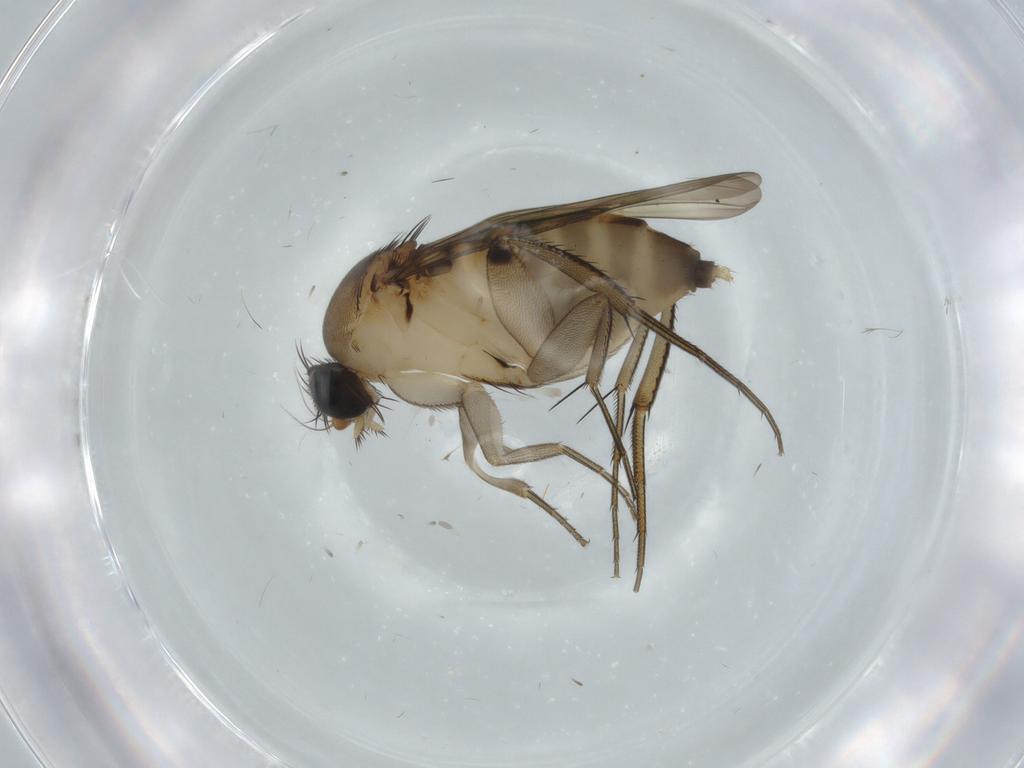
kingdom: Animalia
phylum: Arthropoda
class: Insecta
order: Diptera
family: Phoridae
